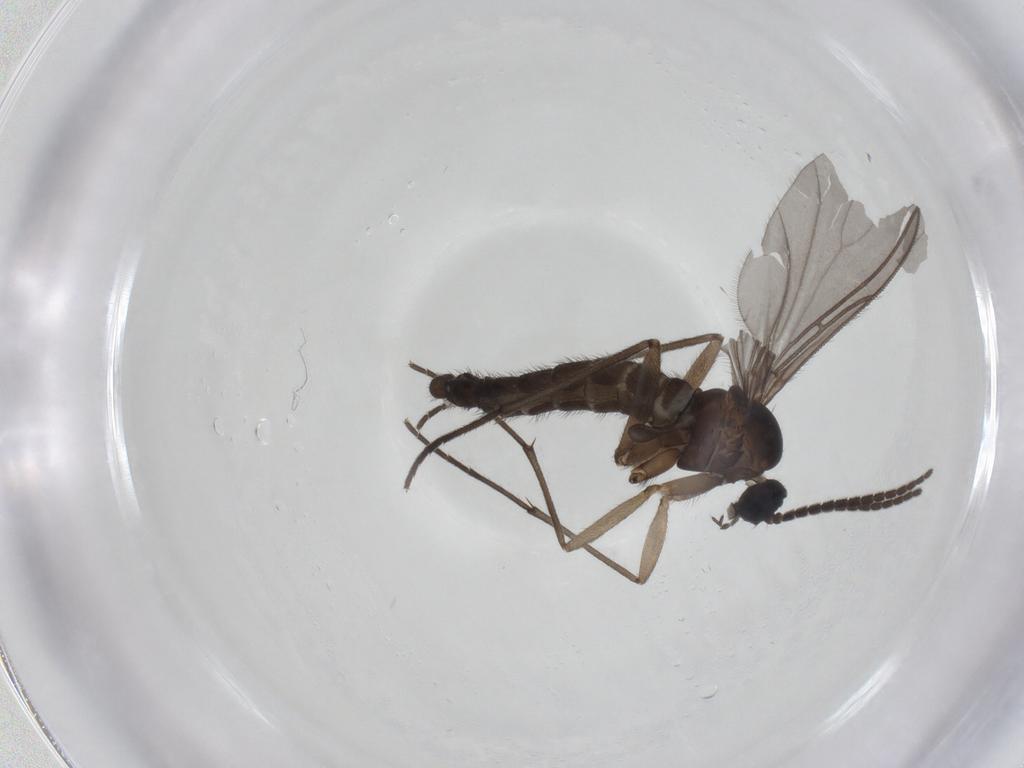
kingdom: Animalia
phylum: Arthropoda
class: Insecta
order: Diptera
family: Sciaridae
